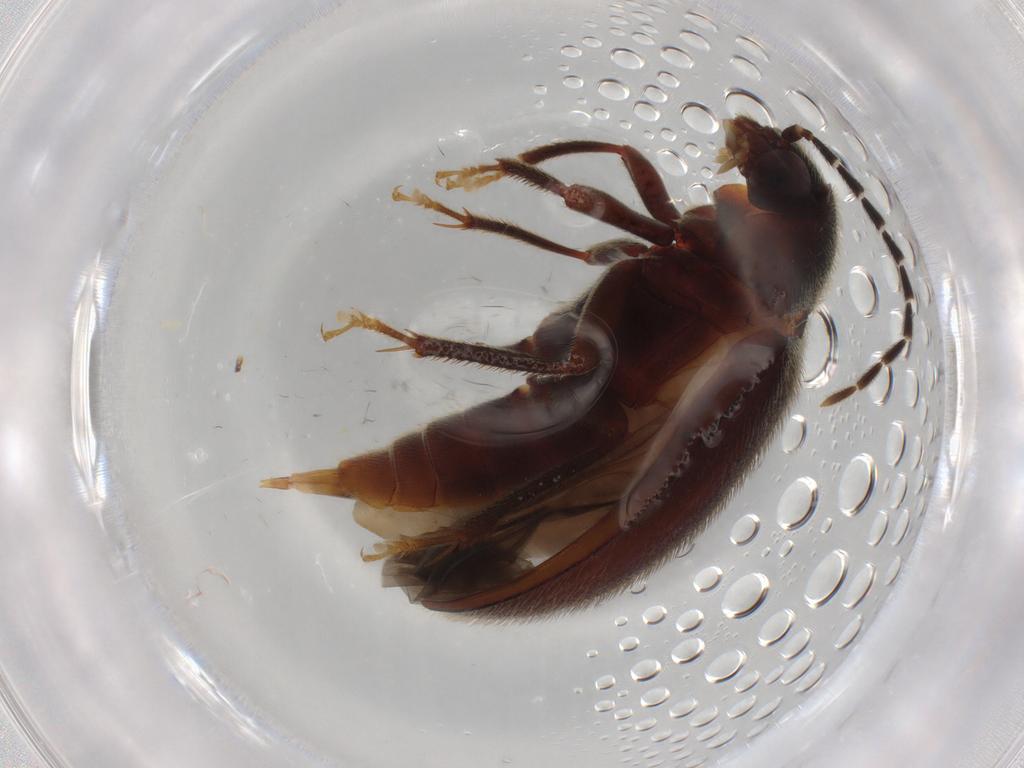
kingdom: Animalia
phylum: Arthropoda
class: Insecta
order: Coleoptera
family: Ptilodactylidae
